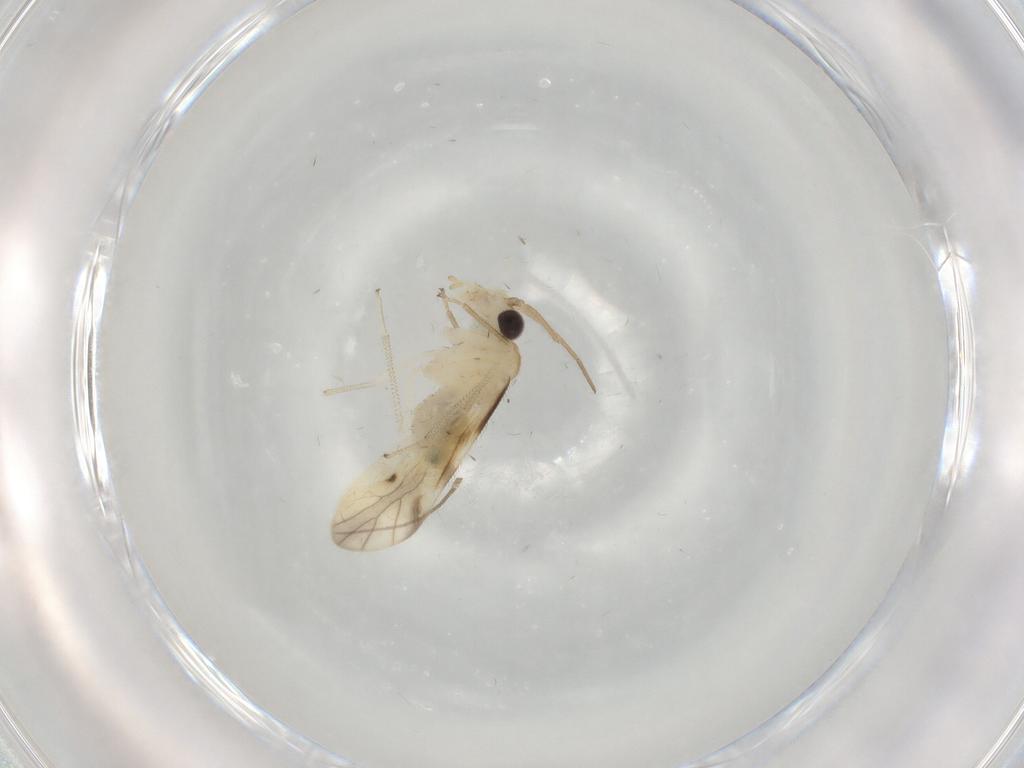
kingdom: Animalia
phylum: Arthropoda
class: Insecta
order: Psocodea
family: Caeciliusidae
